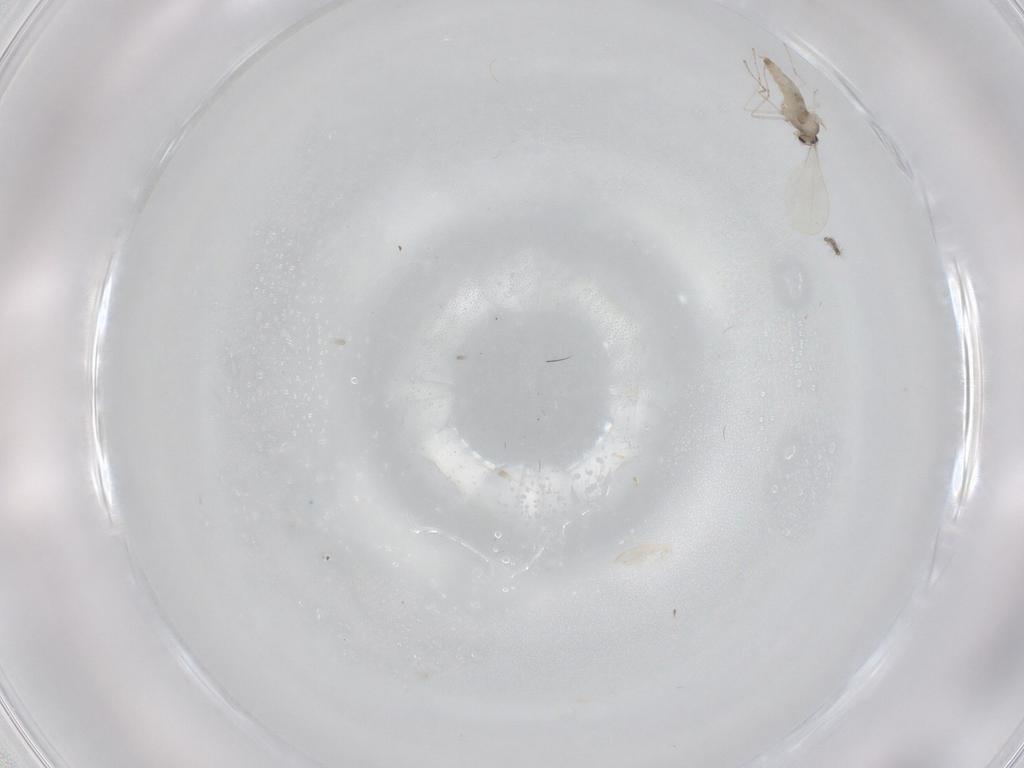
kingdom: Animalia
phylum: Arthropoda
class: Insecta
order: Diptera
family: Cecidomyiidae
